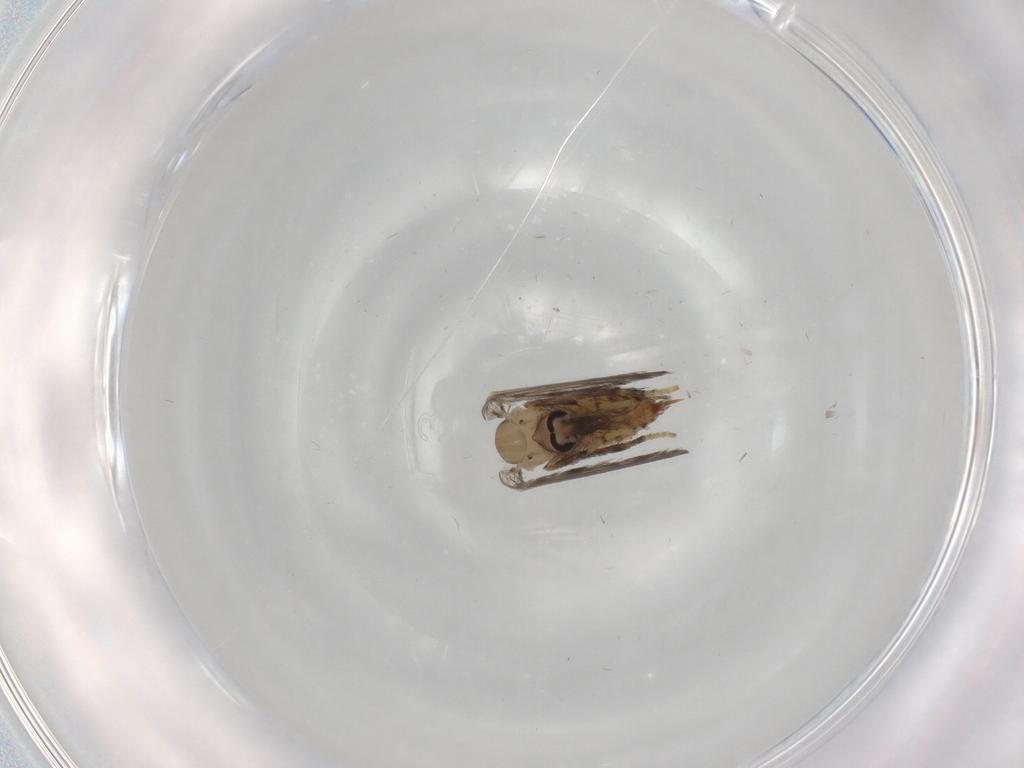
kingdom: Animalia
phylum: Arthropoda
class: Insecta
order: Diptera
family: Psychodidae
